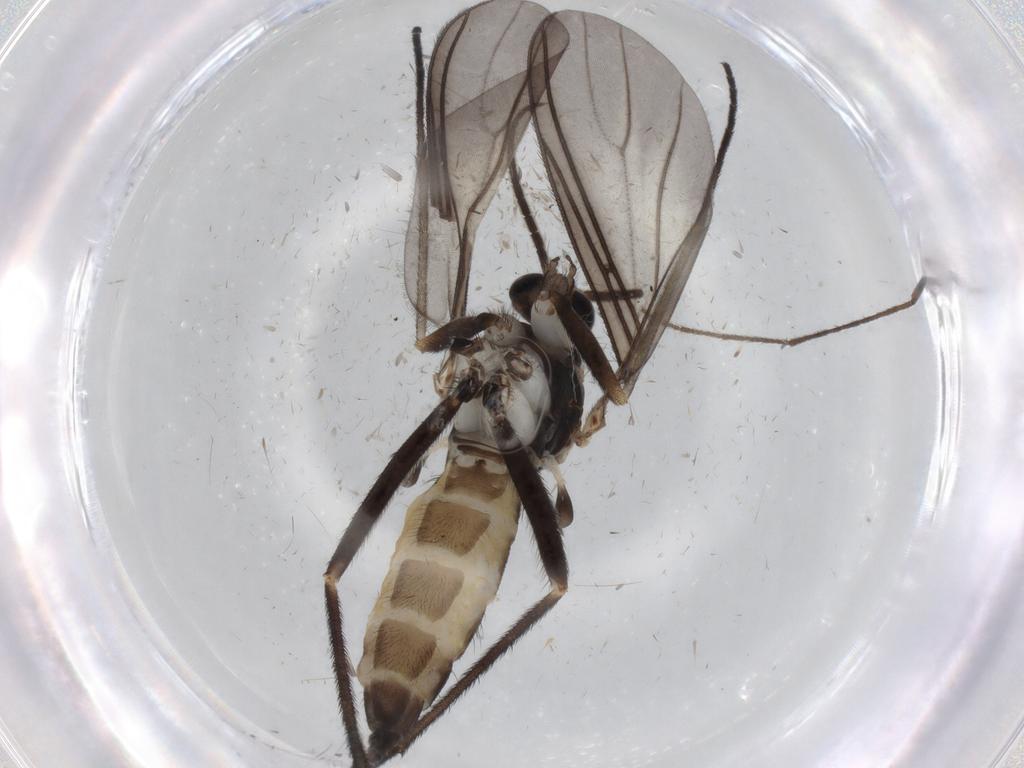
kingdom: Animalia
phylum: Arthropoda
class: Insecta
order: Diptera
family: Sciaridae
